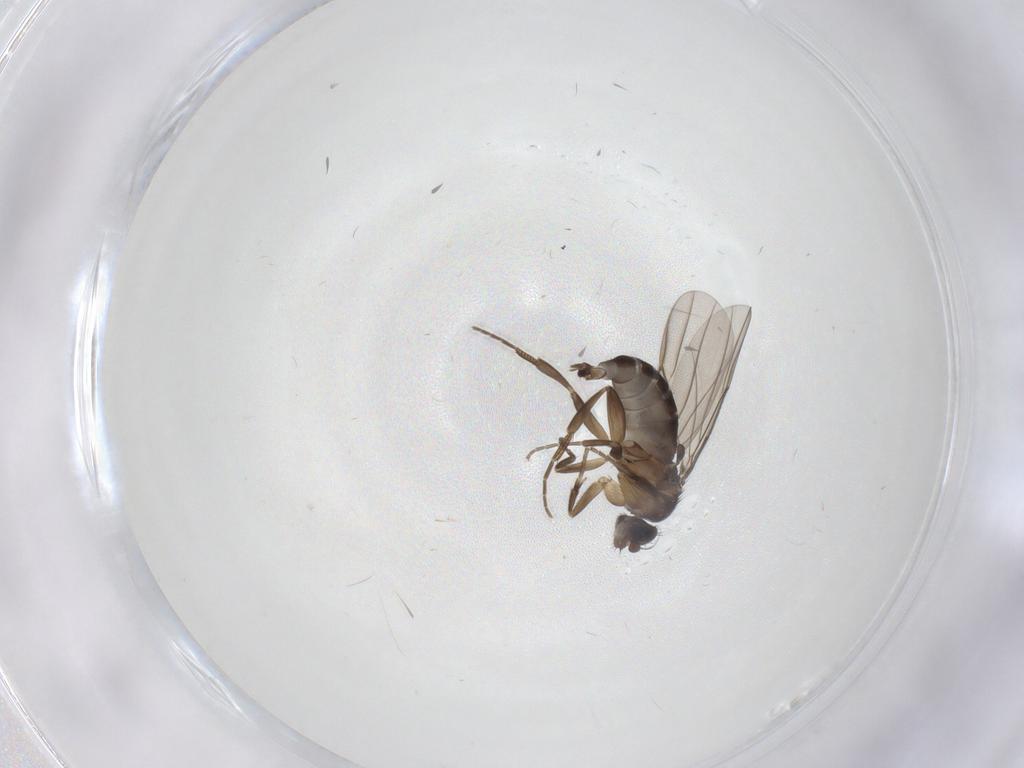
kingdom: Animalia
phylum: Arthropoda
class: Insecta
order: Diptera
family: Phoridae
